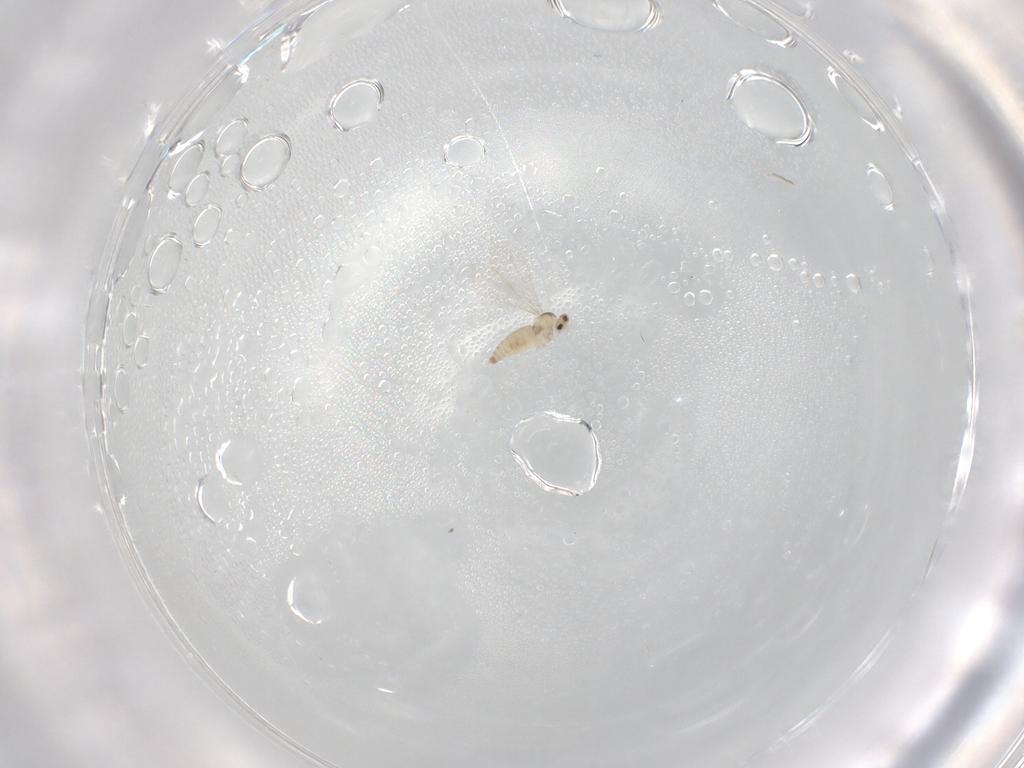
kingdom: Animalia
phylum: Arthropoda
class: Insecta
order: Diptera
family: Cecidomyiidae
